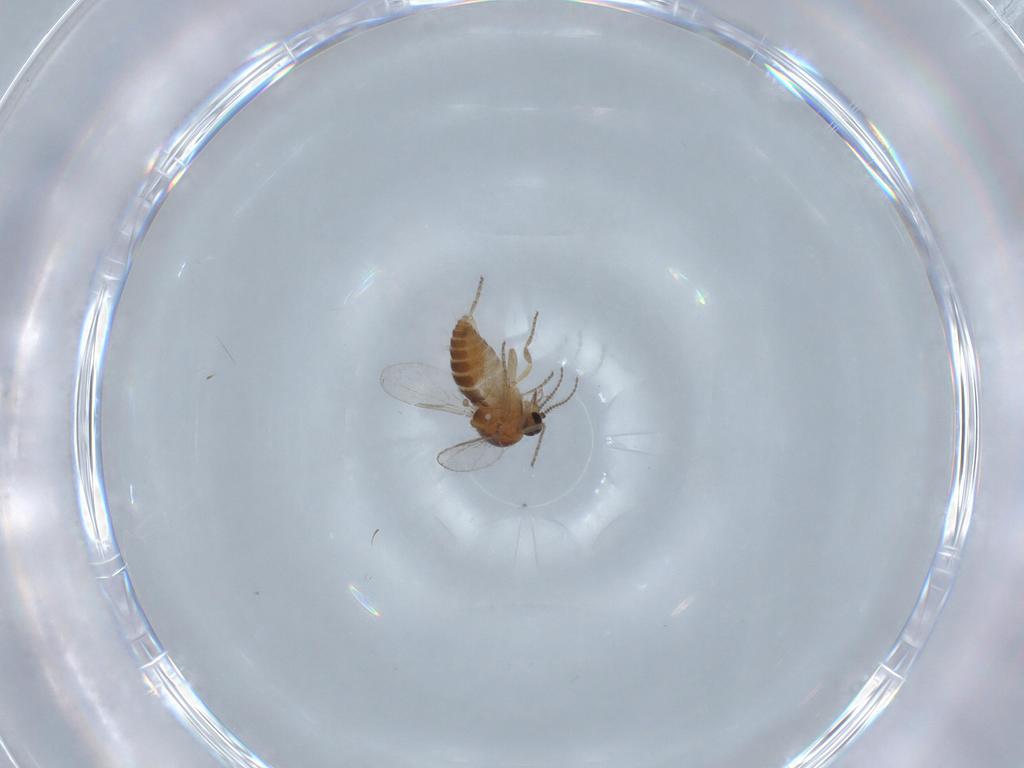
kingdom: Animalia
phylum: Arthropoda
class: Insecta
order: Diptera
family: Ceratopogonidae
